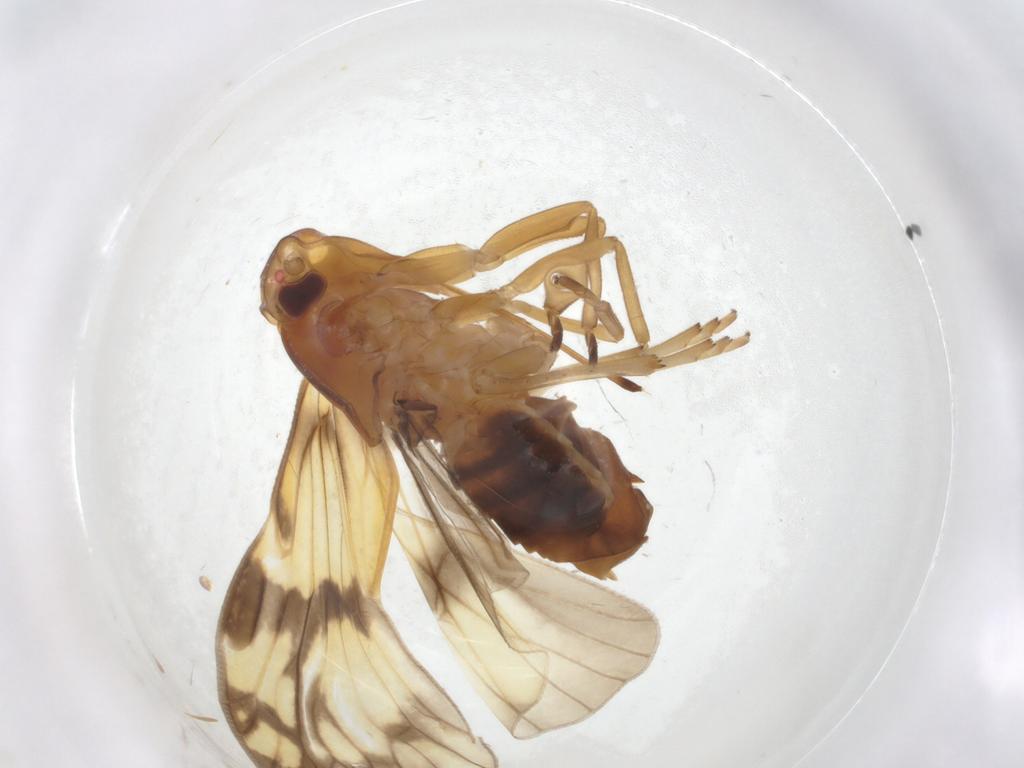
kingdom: Animalia
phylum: Arthropoda
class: Insecta
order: Hemiptera
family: Cixiidae
